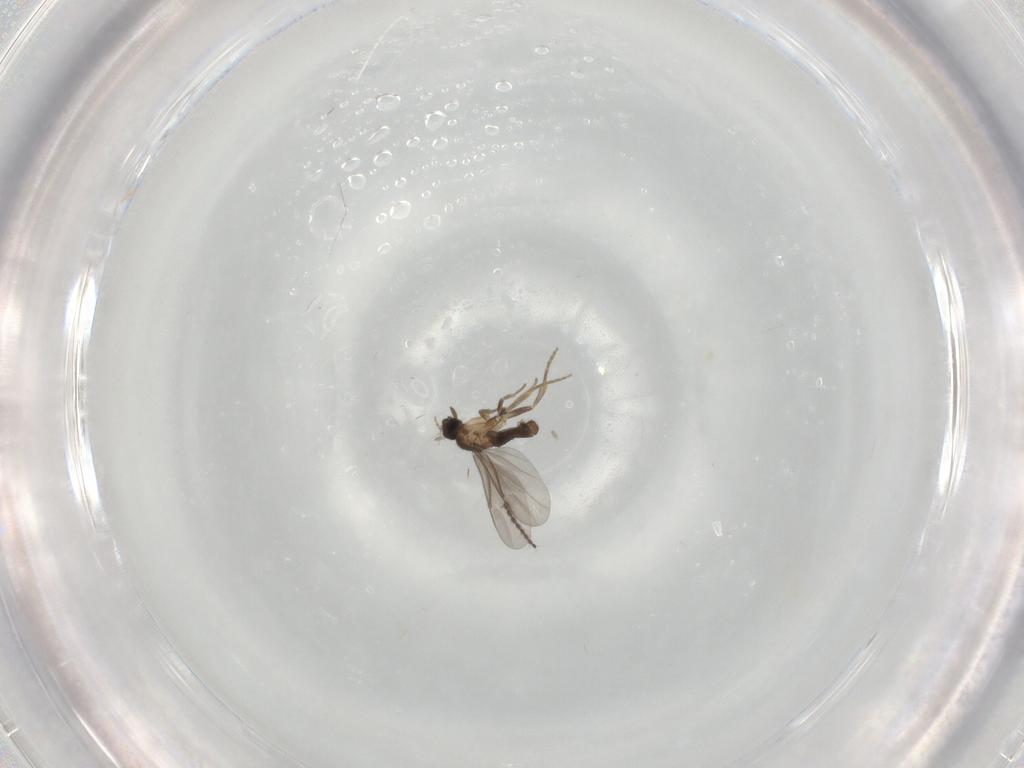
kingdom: Animalia
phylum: Arthropoda
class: Insecta
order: Diptera
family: Limoniidae
